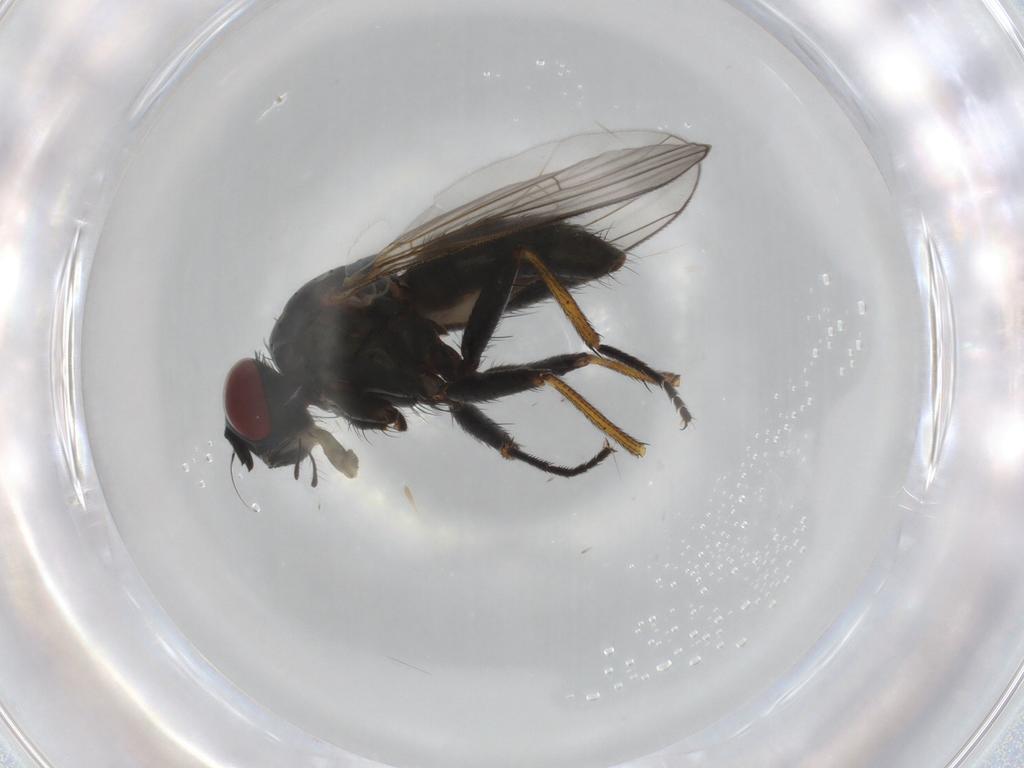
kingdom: Animalia
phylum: Arthropoda
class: Insecta
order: Diptera
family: Muscidae
